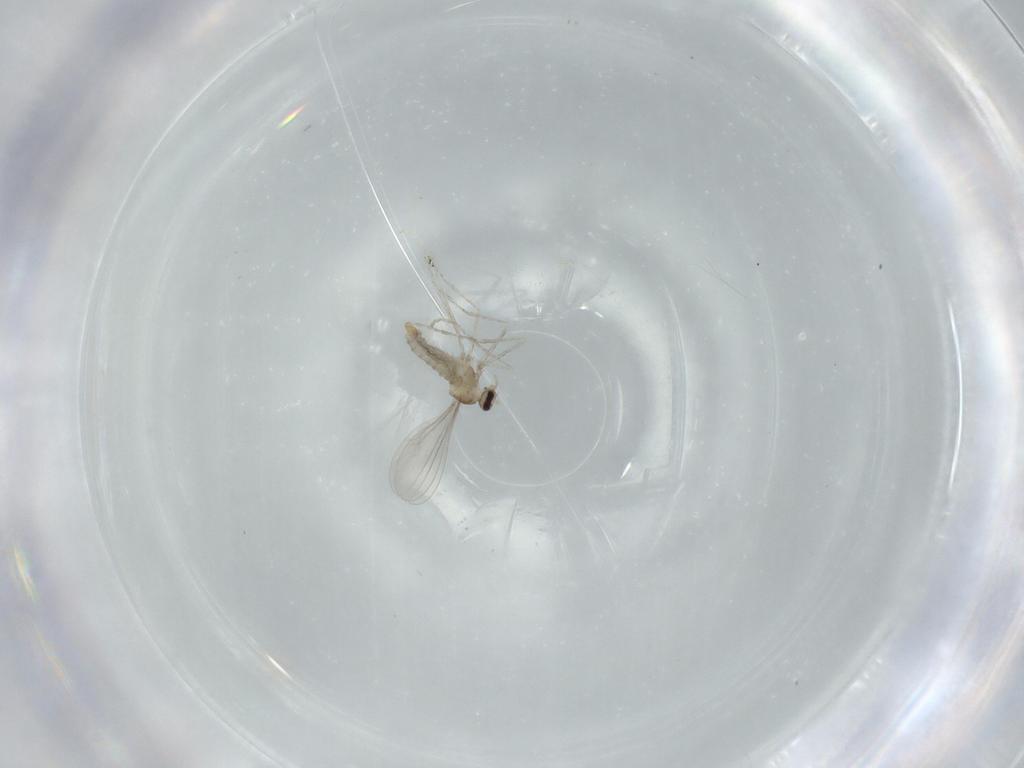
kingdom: Animalia
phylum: Arthropoda
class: Insecta
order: Diptera
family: Cecidomyiidae
